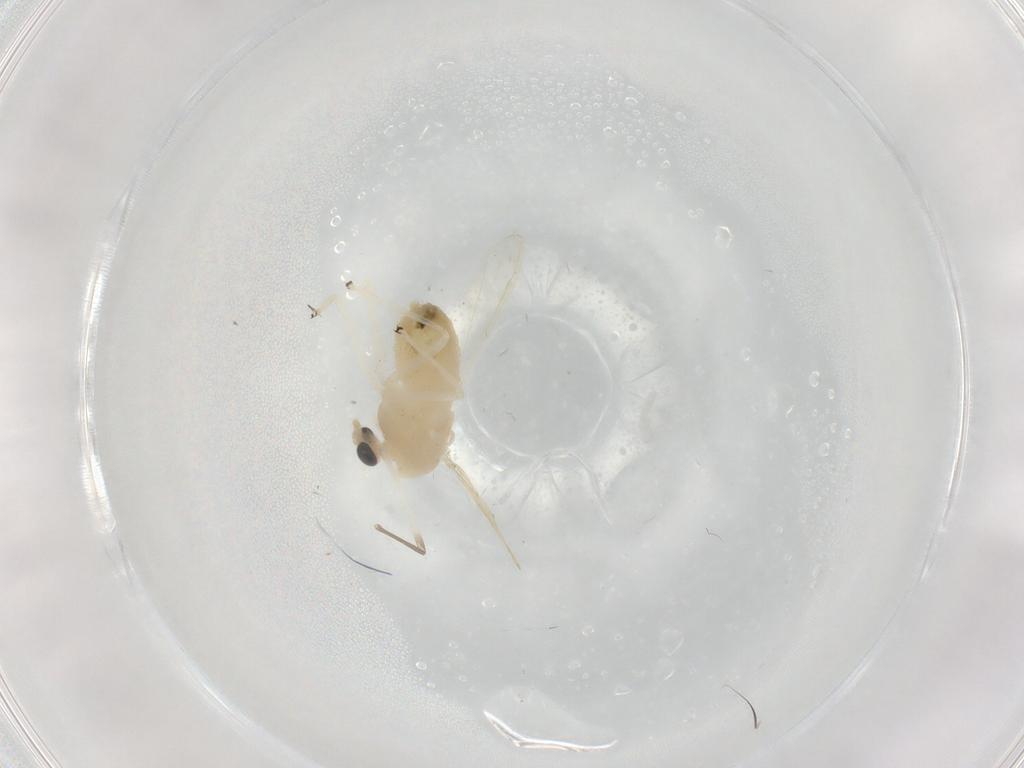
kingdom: Animalia
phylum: Arthropoda
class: Insecta
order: Diptera
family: Chironomidae
